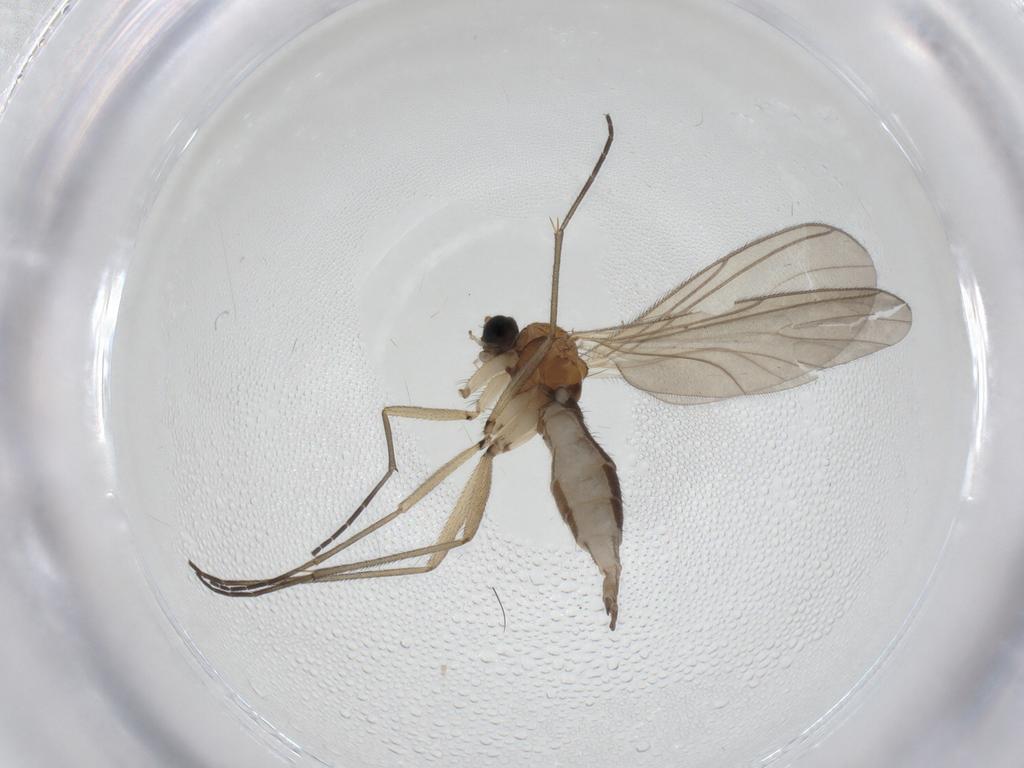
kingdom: Animalia
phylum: Arthropoda
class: Insecta
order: Diptera
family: Sciaridae
